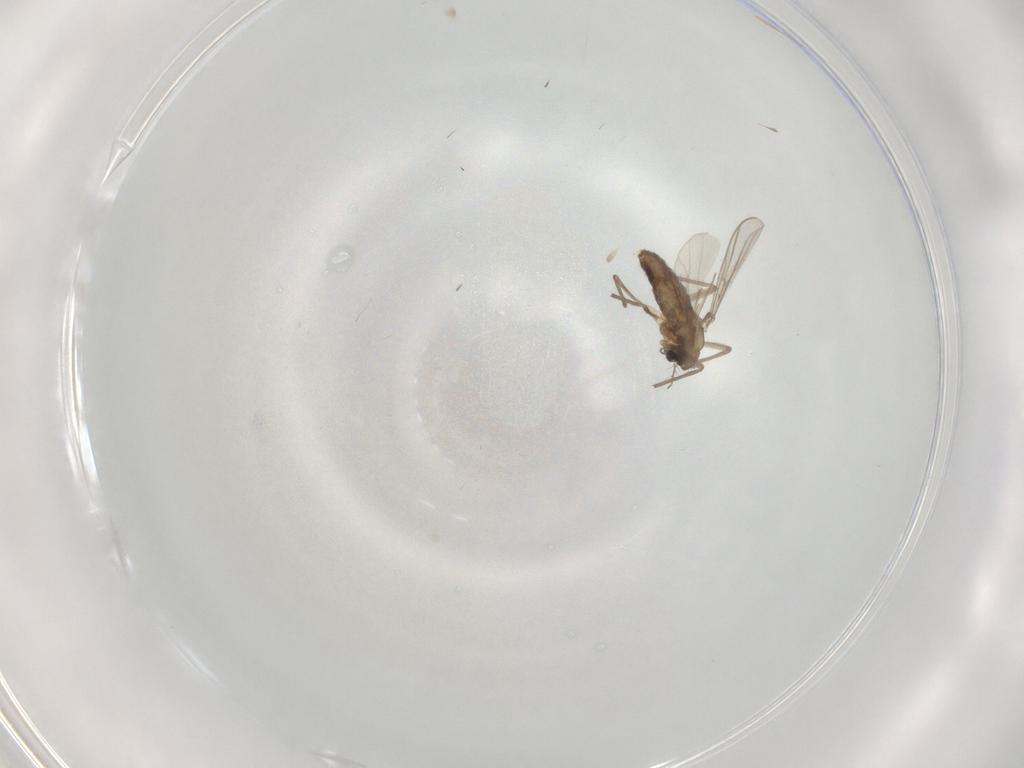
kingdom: Animalia
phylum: Arthropoda
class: Insecta
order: Diptera
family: Chironomidae
